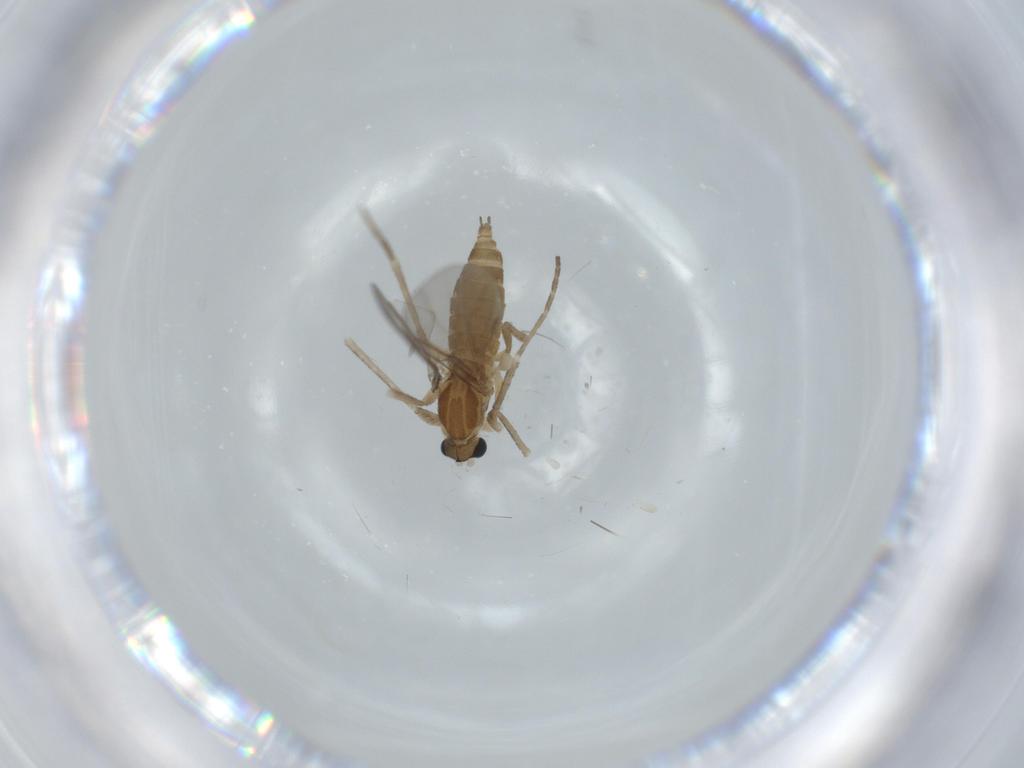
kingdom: Animalia
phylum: Arthropoda
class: Insecta
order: Diptera
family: Cecidomyiidae
